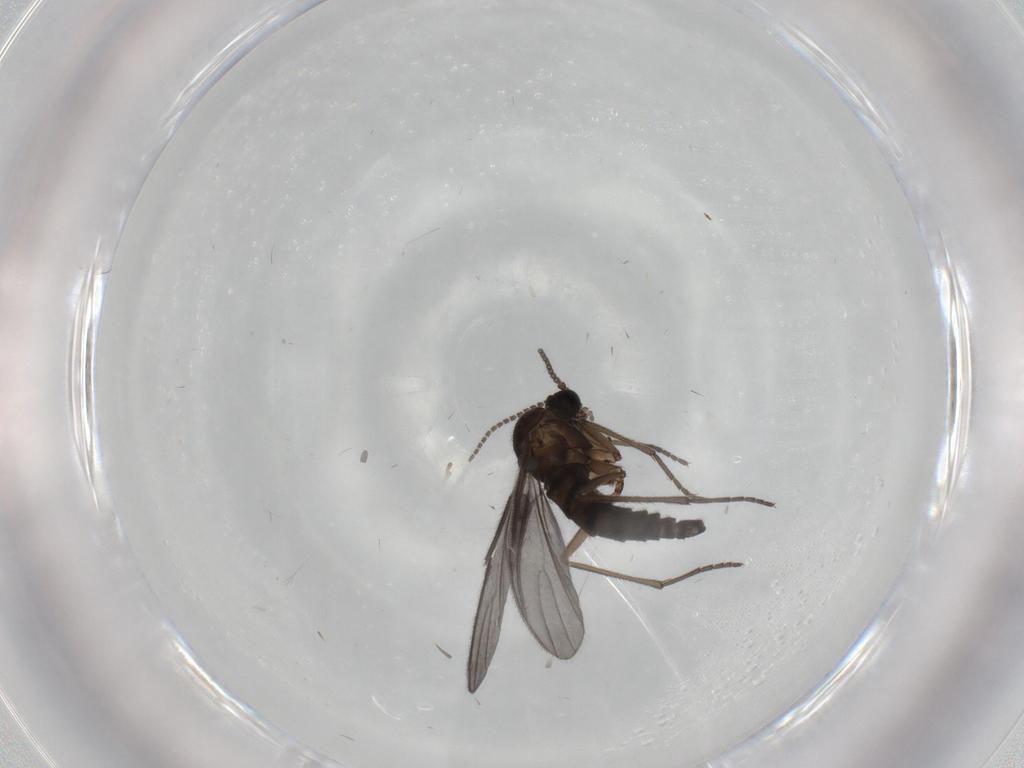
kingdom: Animalia
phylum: Arthropoda
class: Insecta
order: Diptera
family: Sciaridae
